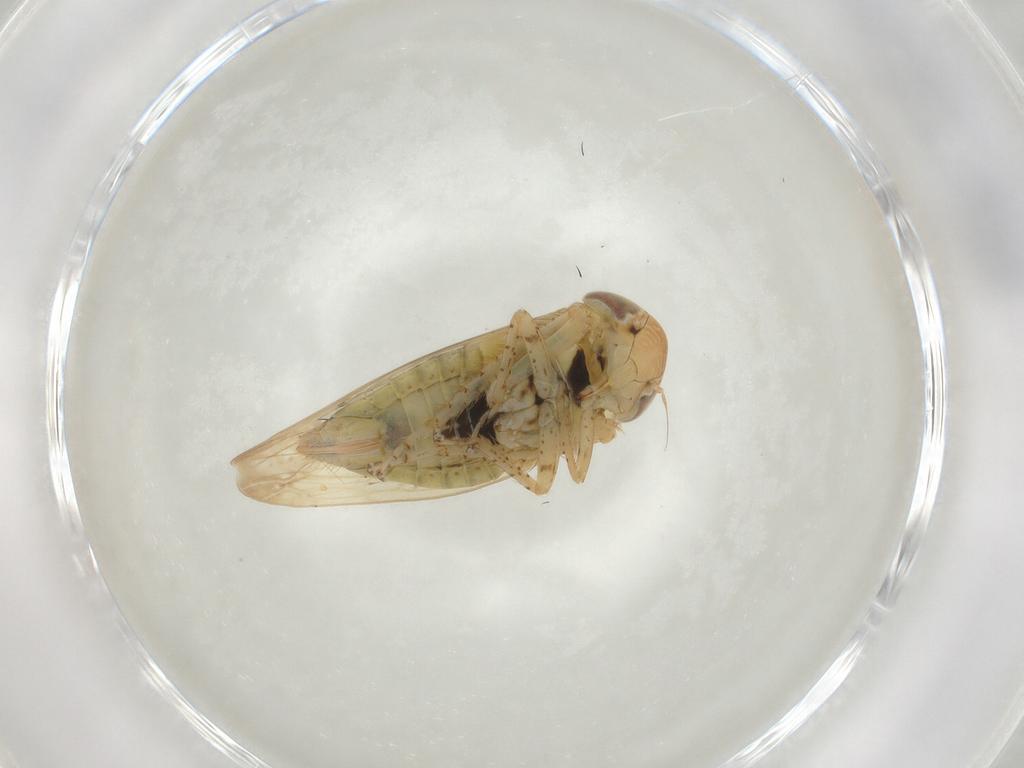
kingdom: Animalia
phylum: Arthropoda
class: Insecta
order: Hemiptera
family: Cicadellidae
